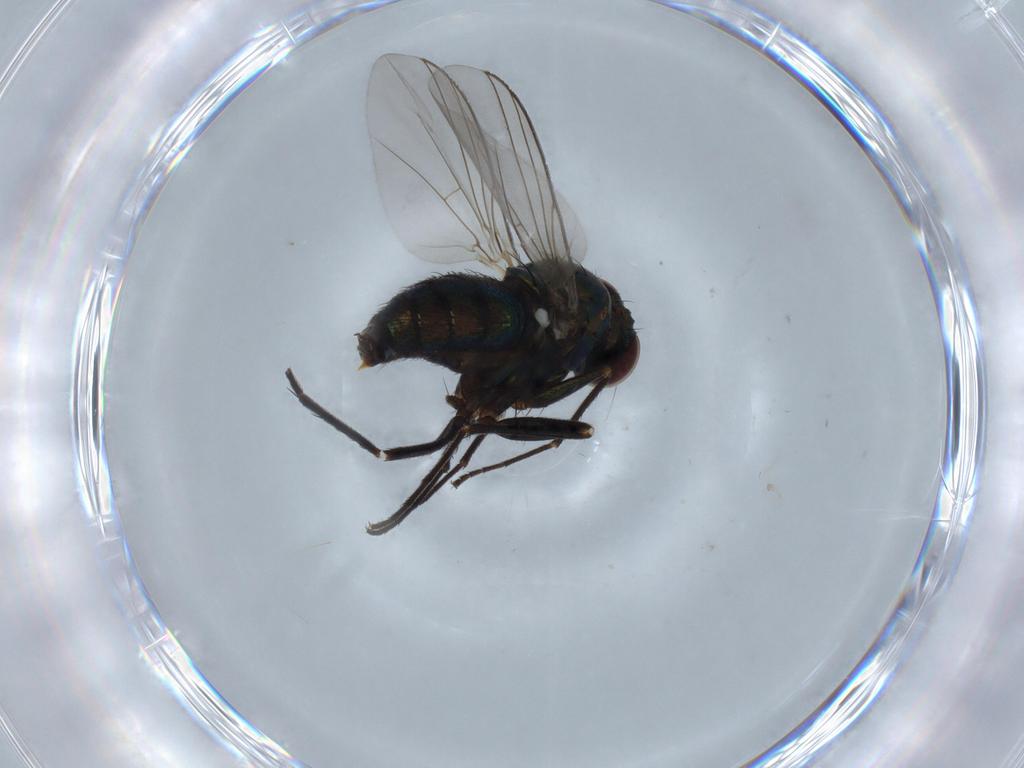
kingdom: Animalia
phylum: Arthropoda
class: Insecta
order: Diptera
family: Dolichopodidae
